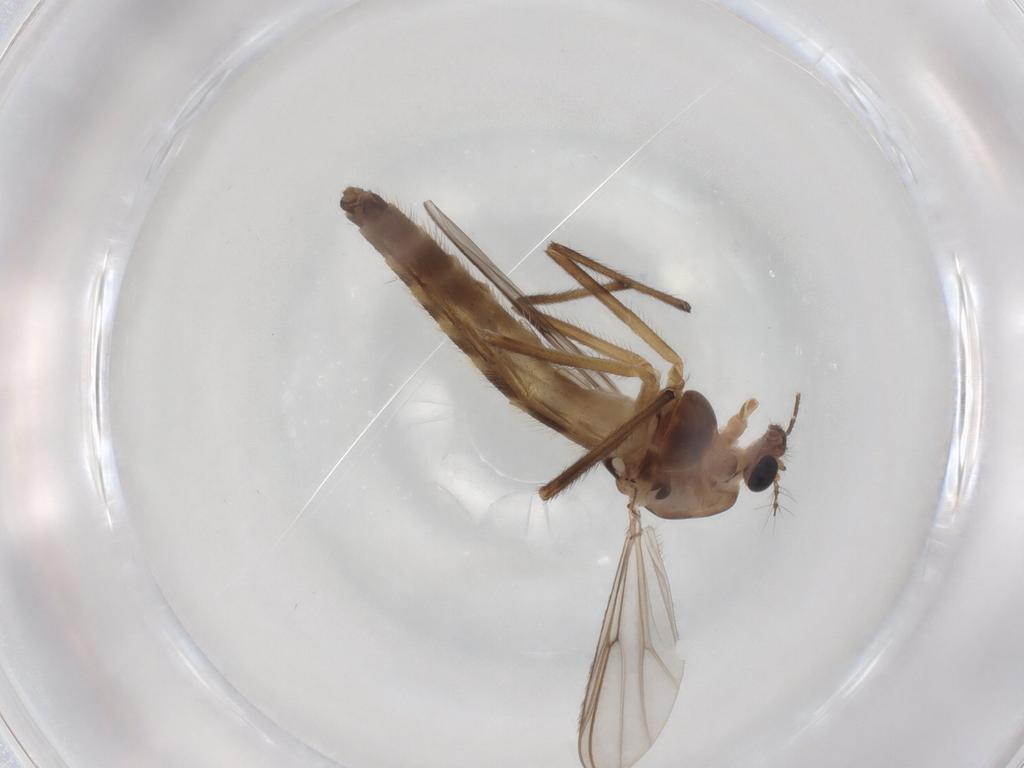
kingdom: Animalia
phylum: Arthropoda
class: Insecta
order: Diptera
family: Chironomidae
